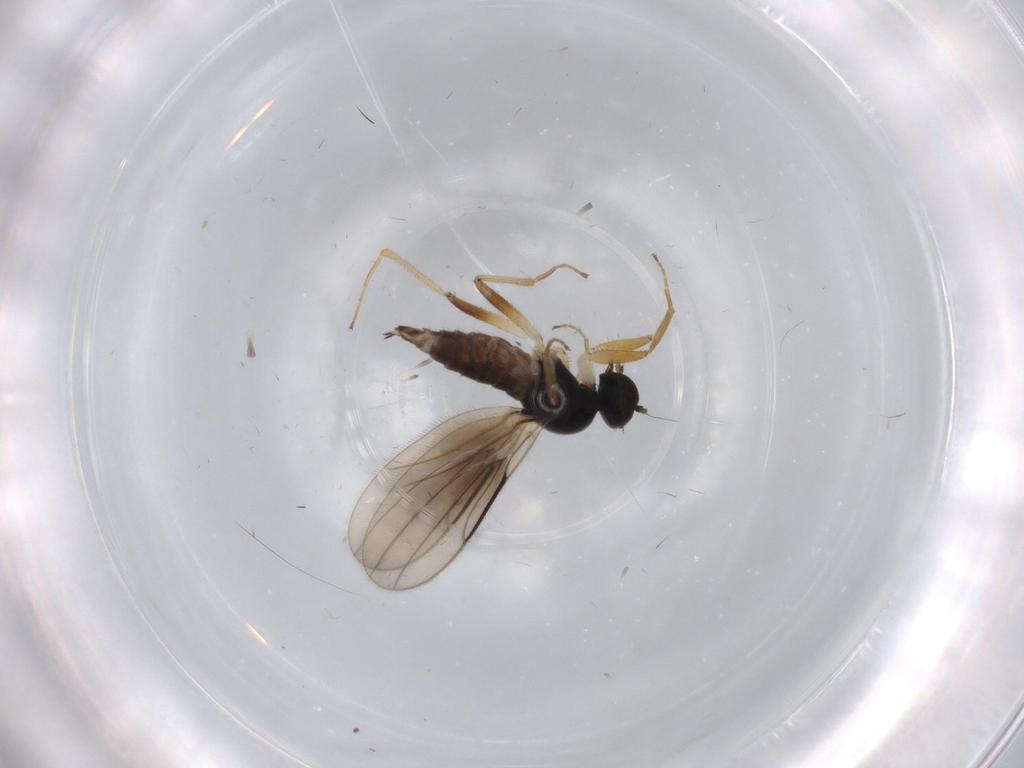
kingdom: Animalia
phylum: Arthropoda
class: Insecta
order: Diptera
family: Hybotidae
